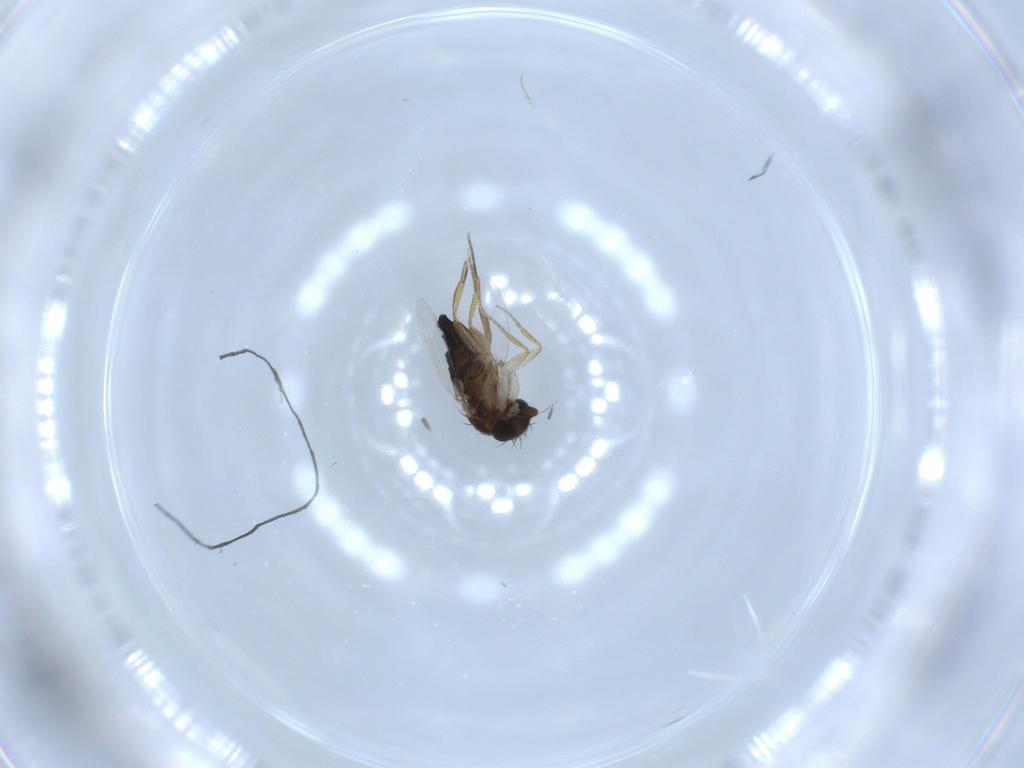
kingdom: Animalia
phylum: Arthropoda
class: Insecta
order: Diptera
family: Phoridae
